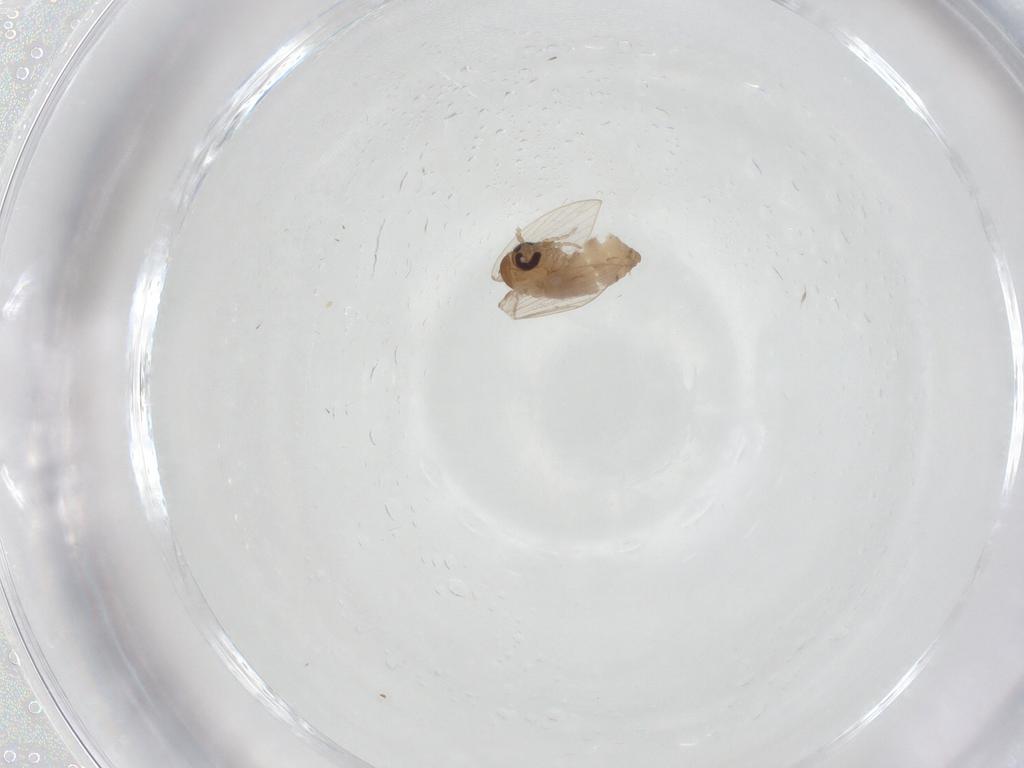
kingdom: Animalia
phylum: Arthropoda
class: Insecta
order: Diptera
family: Psychodidae
